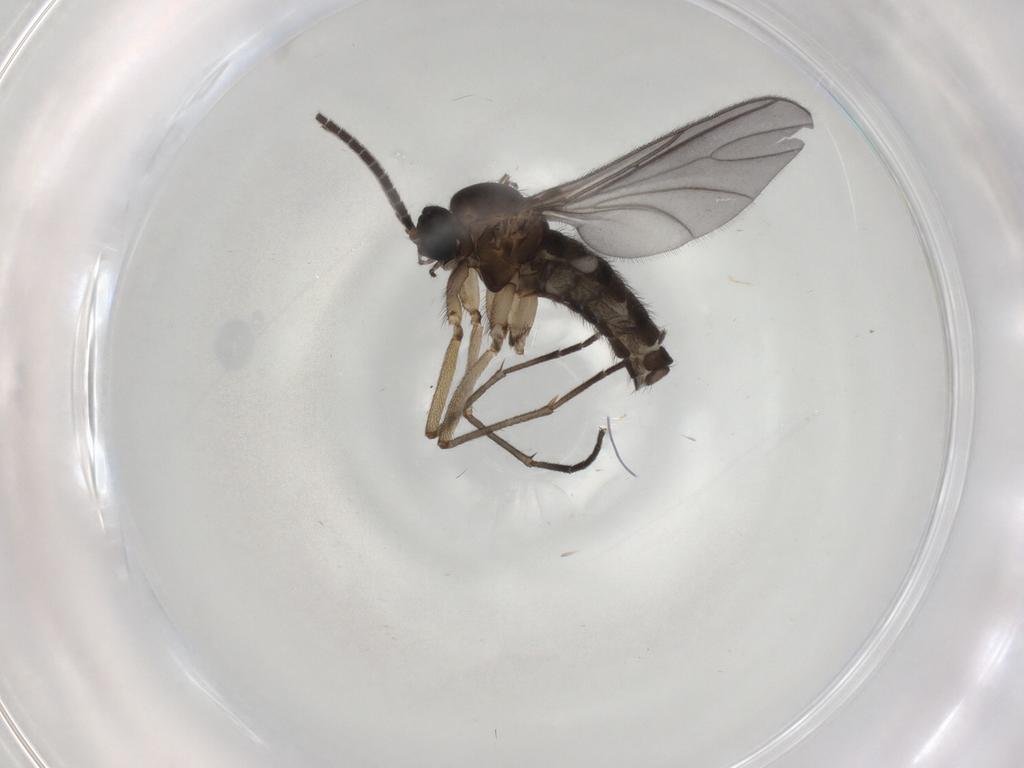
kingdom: Animalia
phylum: Arthropoda
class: Insecta
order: Diptera
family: Sciaridae
